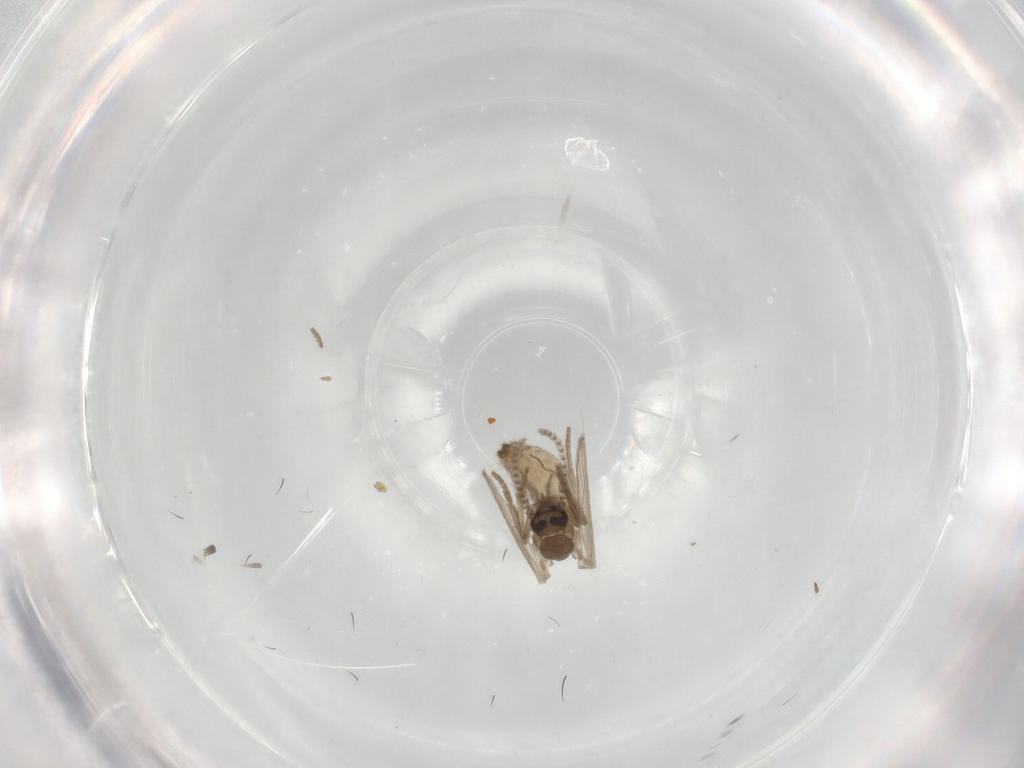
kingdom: Animalia
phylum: Arthropoda
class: Insecta
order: Diptera
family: Psychodidae
